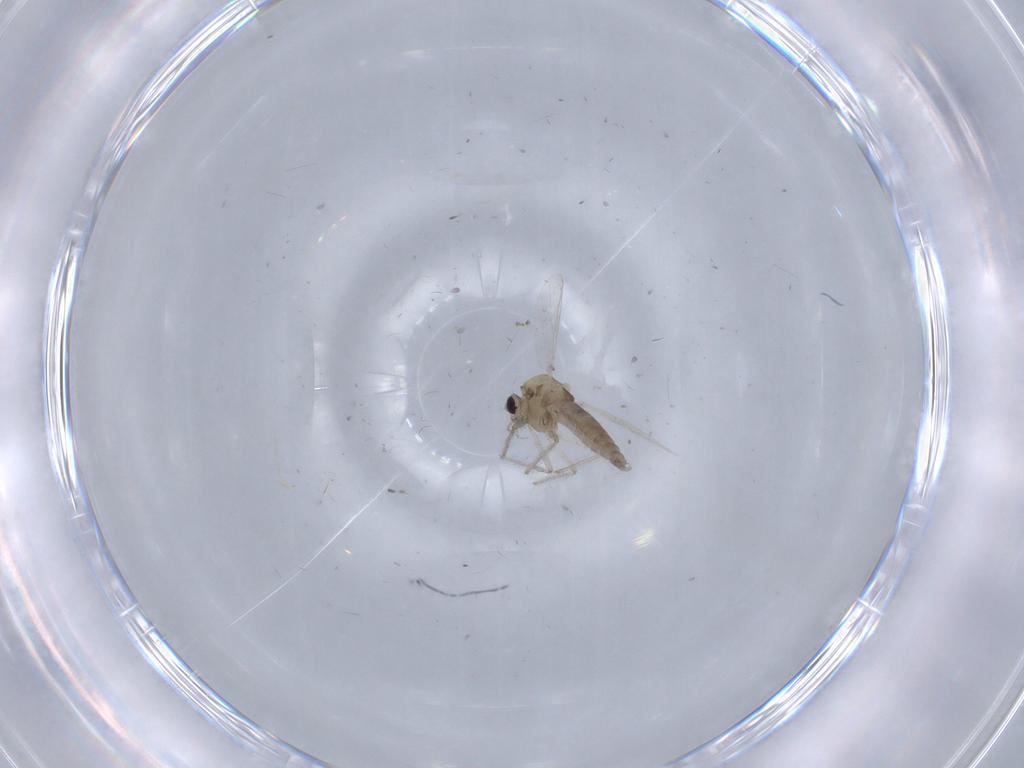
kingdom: Animalia
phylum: Arthropoda
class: Insecta
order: Diptera
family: Chironomidae
